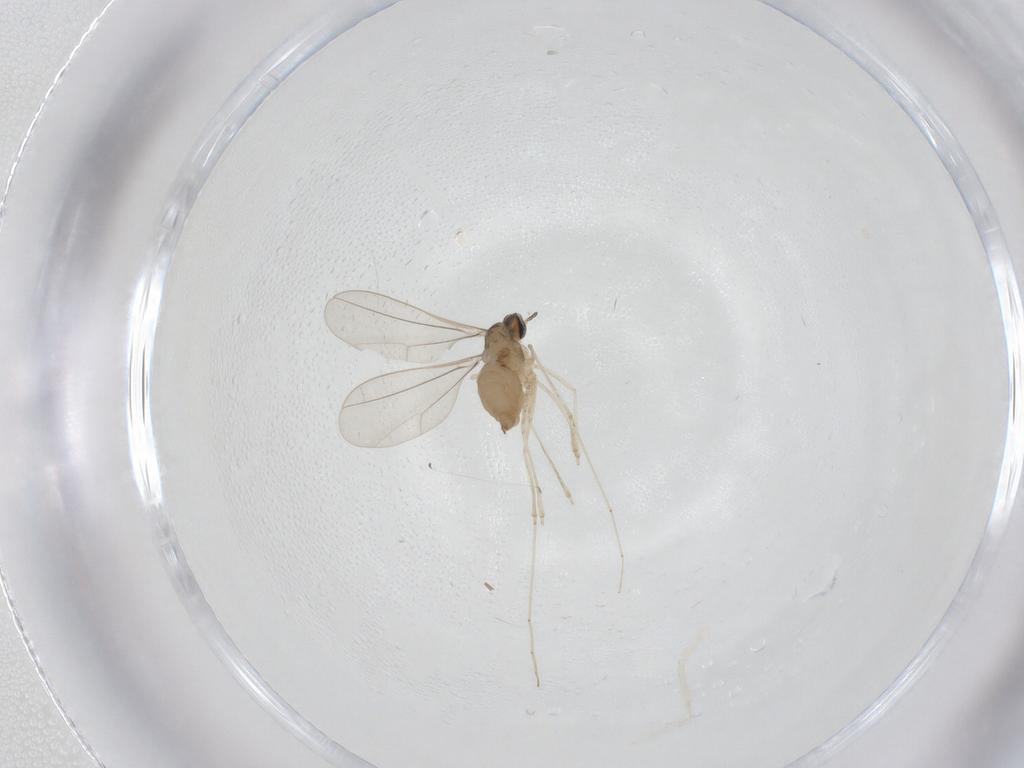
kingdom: Animalia
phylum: Arthropoda
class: Insecta
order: Diptera
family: Cecidomyiidae
